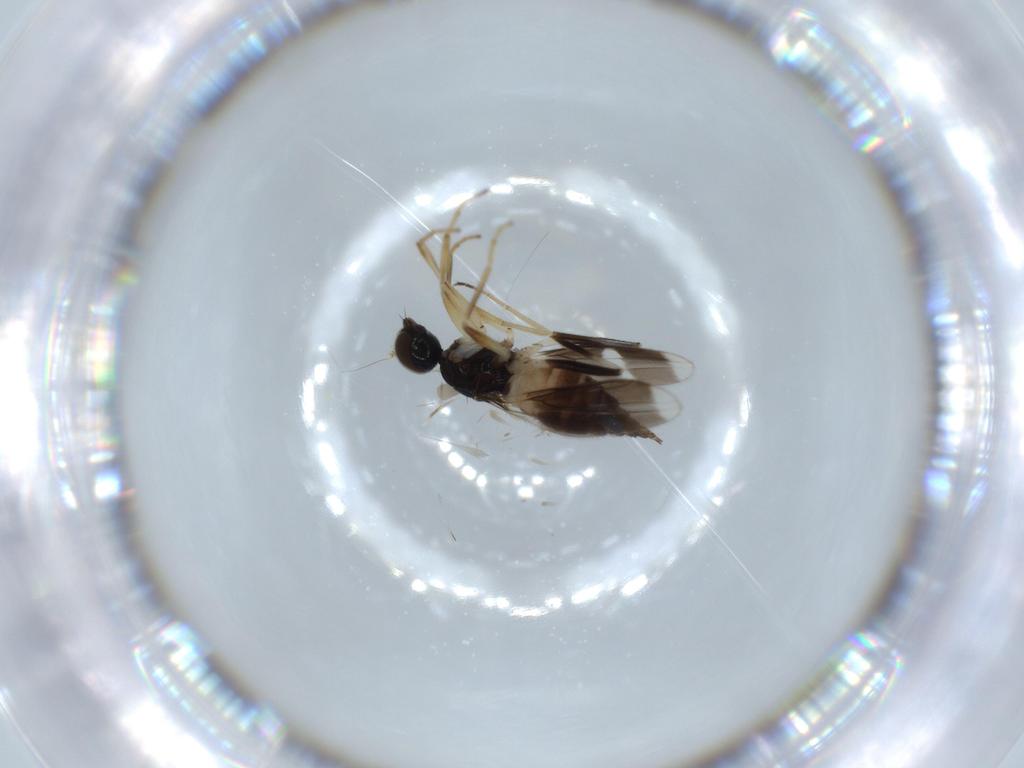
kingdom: Animalia
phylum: Arthropoda
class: Insecta
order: Diptera
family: Hybotidae
